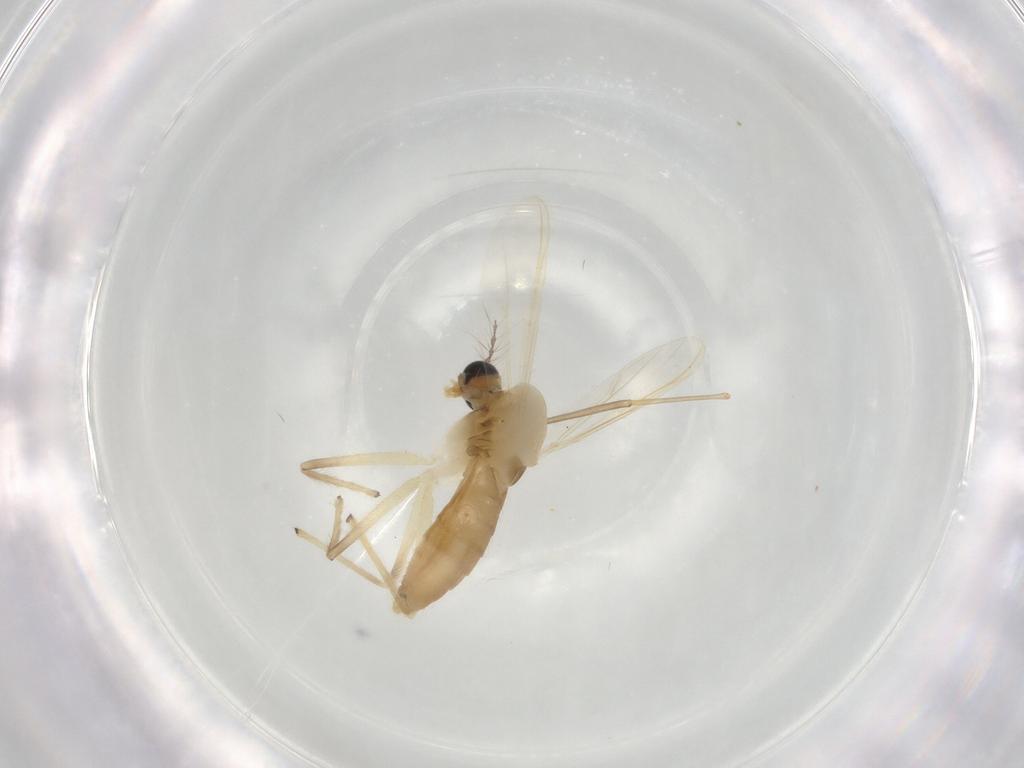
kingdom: Animalia
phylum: Arthropoda
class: Insecta
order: Diptera
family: Chironomidae
